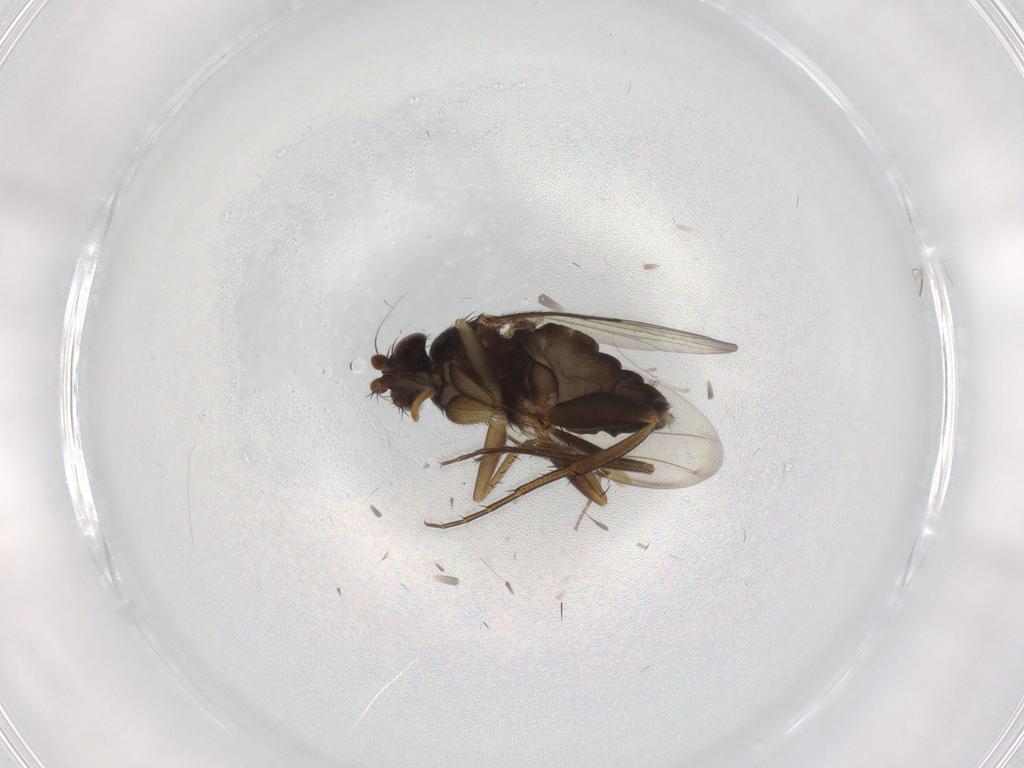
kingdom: Animalia
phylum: Arthropoda
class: Insecta
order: Diptera
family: Phoridae
